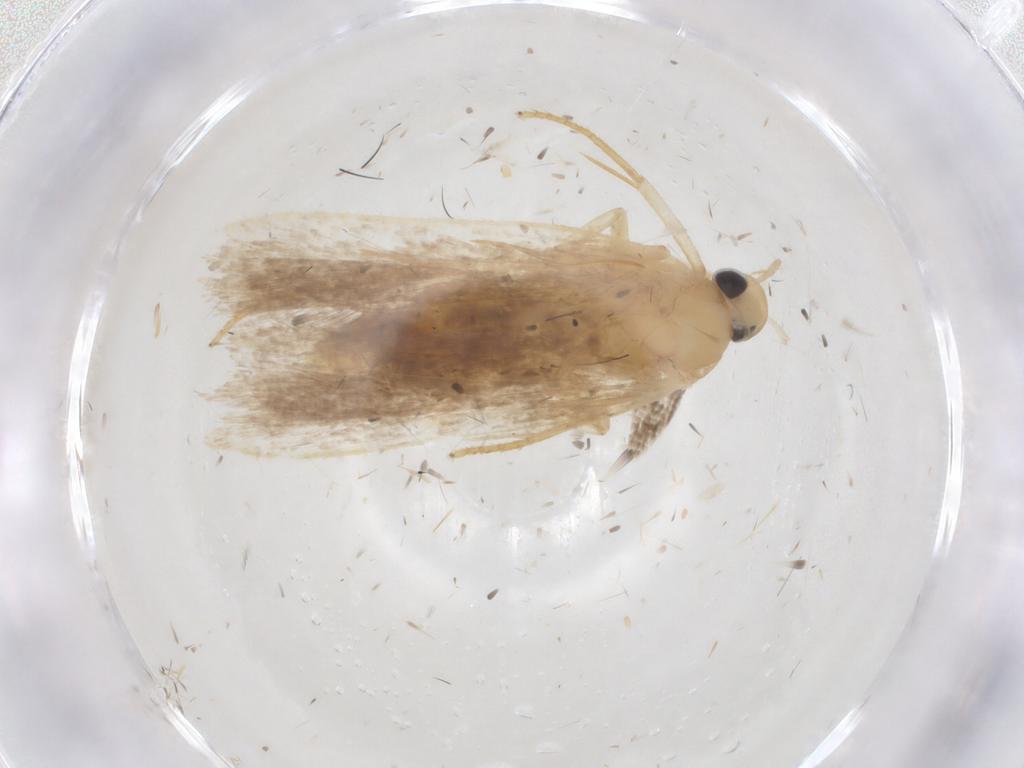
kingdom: Animalia
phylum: Arthropoda
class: Insecta
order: Lepidoptera
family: Gelechiidae
